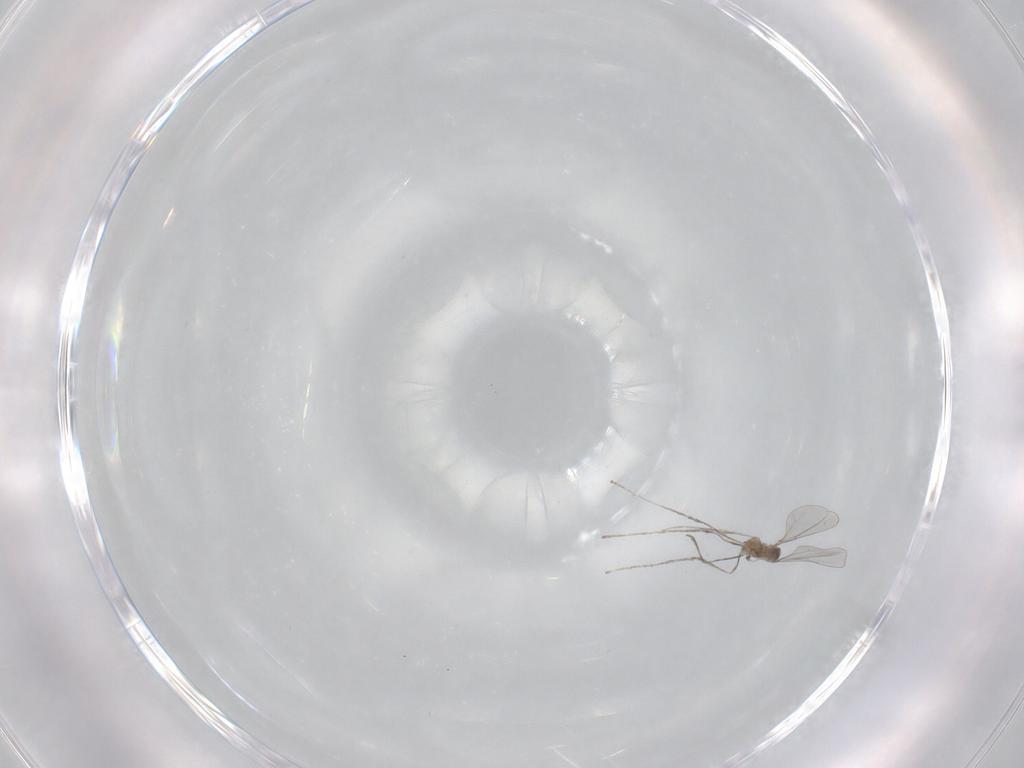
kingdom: Animalia
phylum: Arthropoda
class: Insecta
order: Diptera
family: Cecidomyiidae
